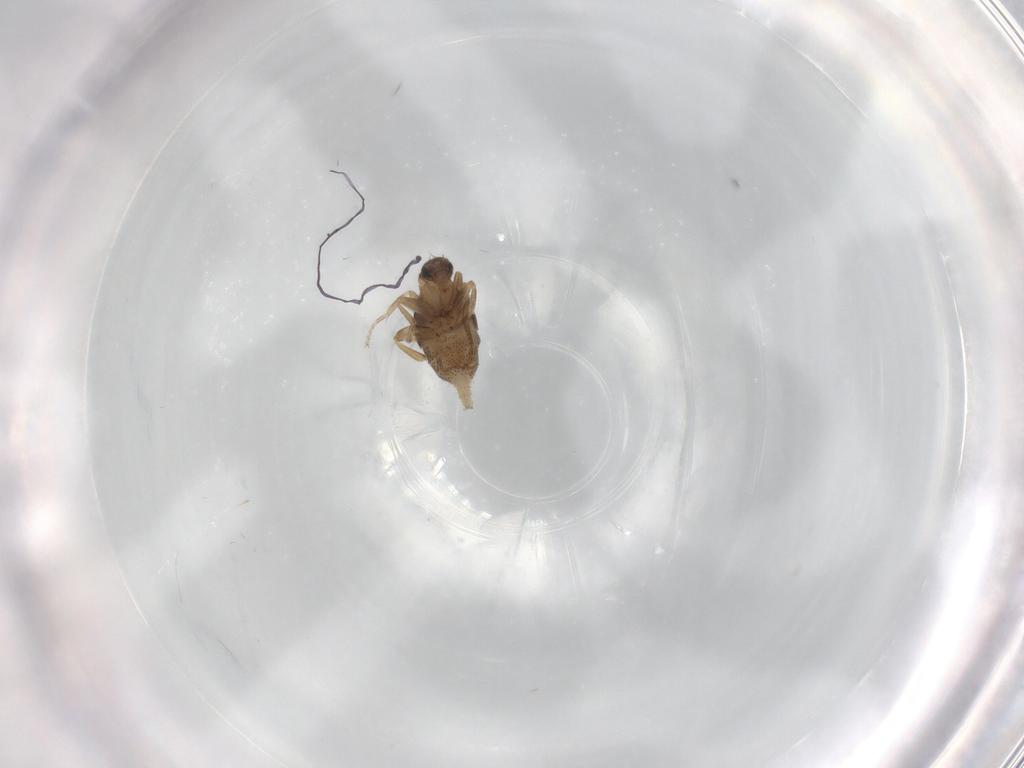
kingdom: Animalia
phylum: Arthropoda
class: Insecta
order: Diptera
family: Phoridae
